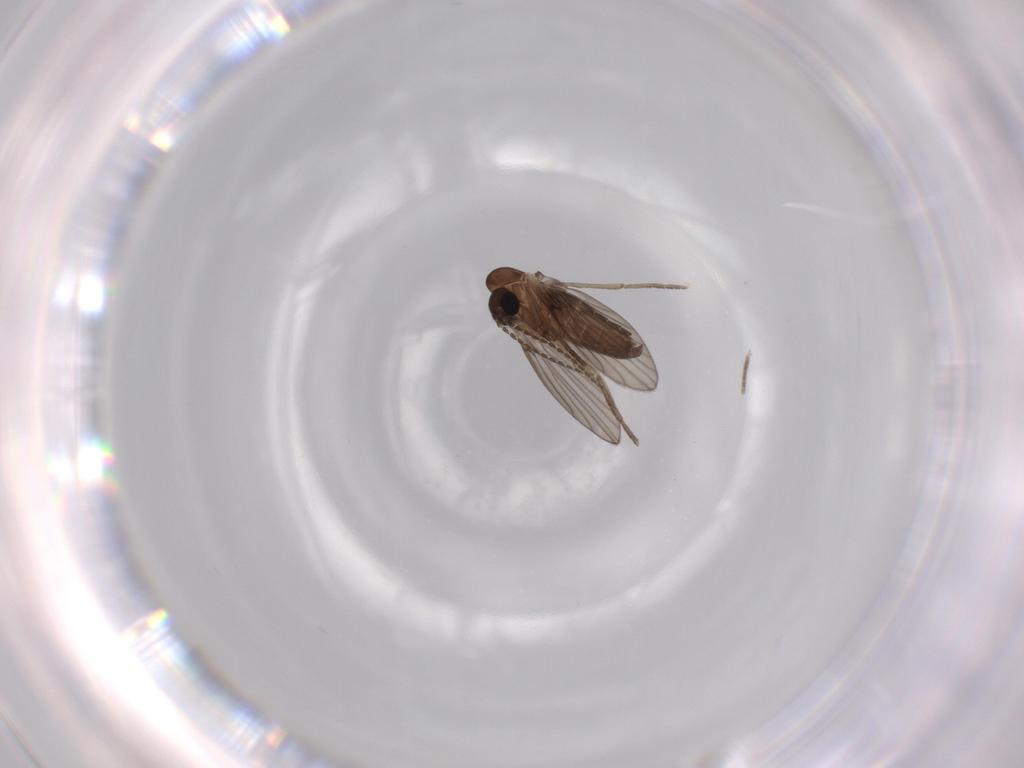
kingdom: Animalia
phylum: Arthropoda
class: Insecta
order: Diptera
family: Psychodidae
